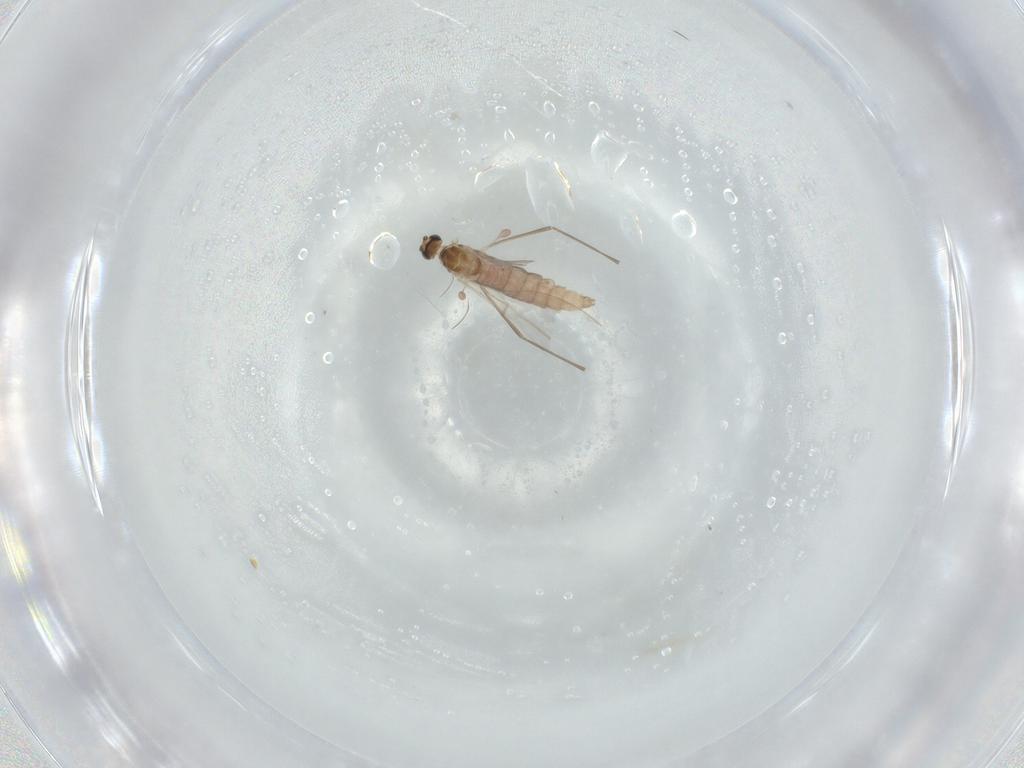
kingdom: Animalia
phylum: Arthropoda
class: Insecta
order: Diptera
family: Cecidomyiidae
